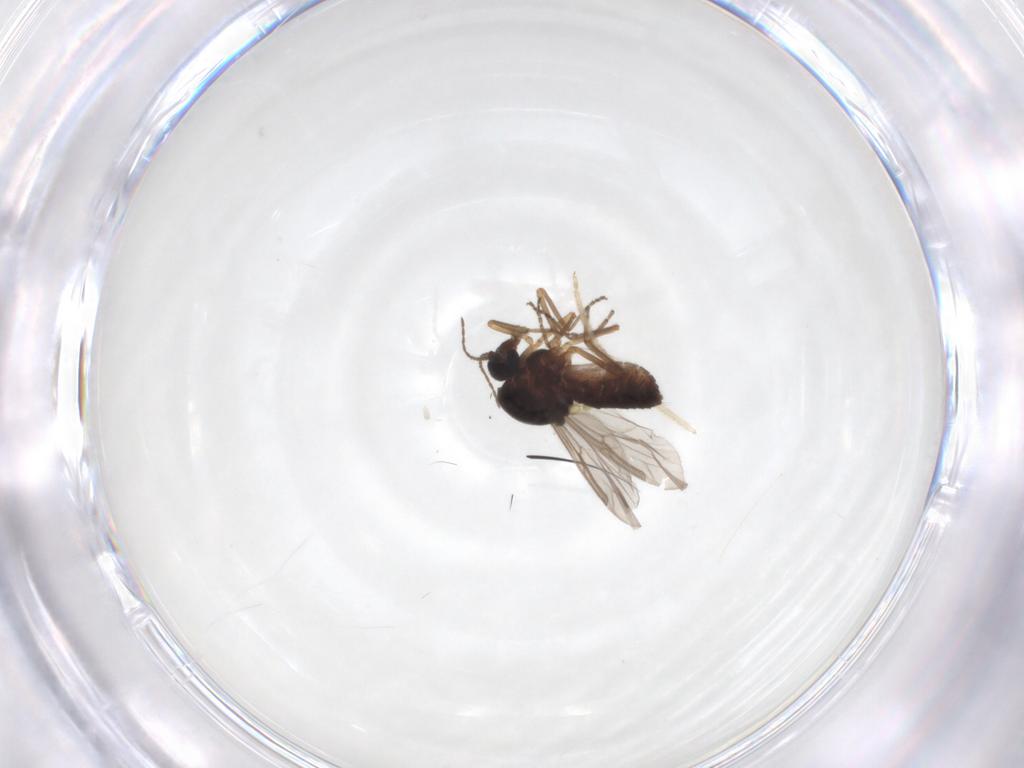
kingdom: Animalia
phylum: Arthropoda
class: Insecta
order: Diptera
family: Ceratopogonidae
